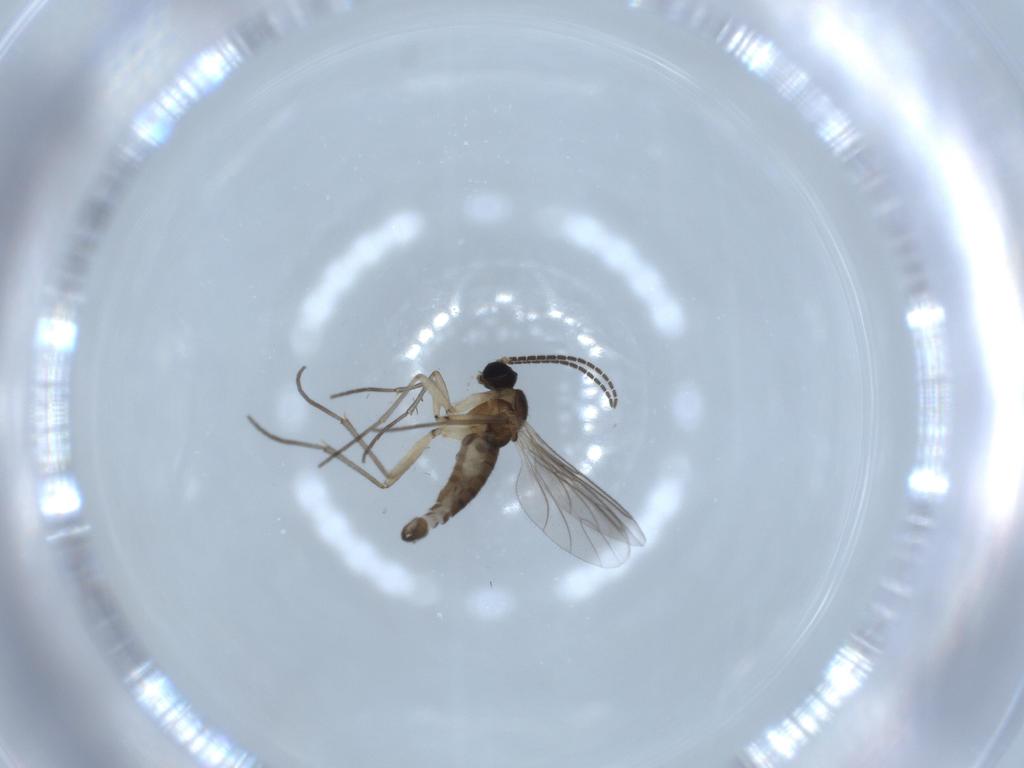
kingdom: Animalia
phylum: Arthropoda
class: Insecta
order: Diptera
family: Sciaridae
